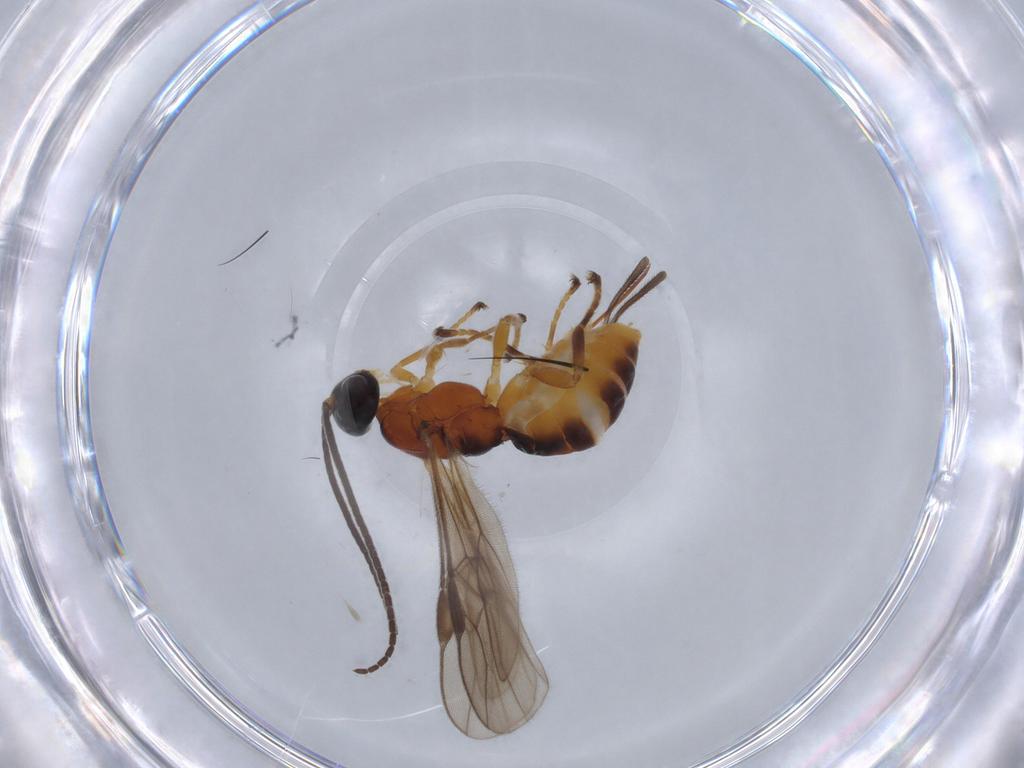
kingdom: Animalia
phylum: Arthropoda
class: Insecta
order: Hymenoptera
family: Braconidae
